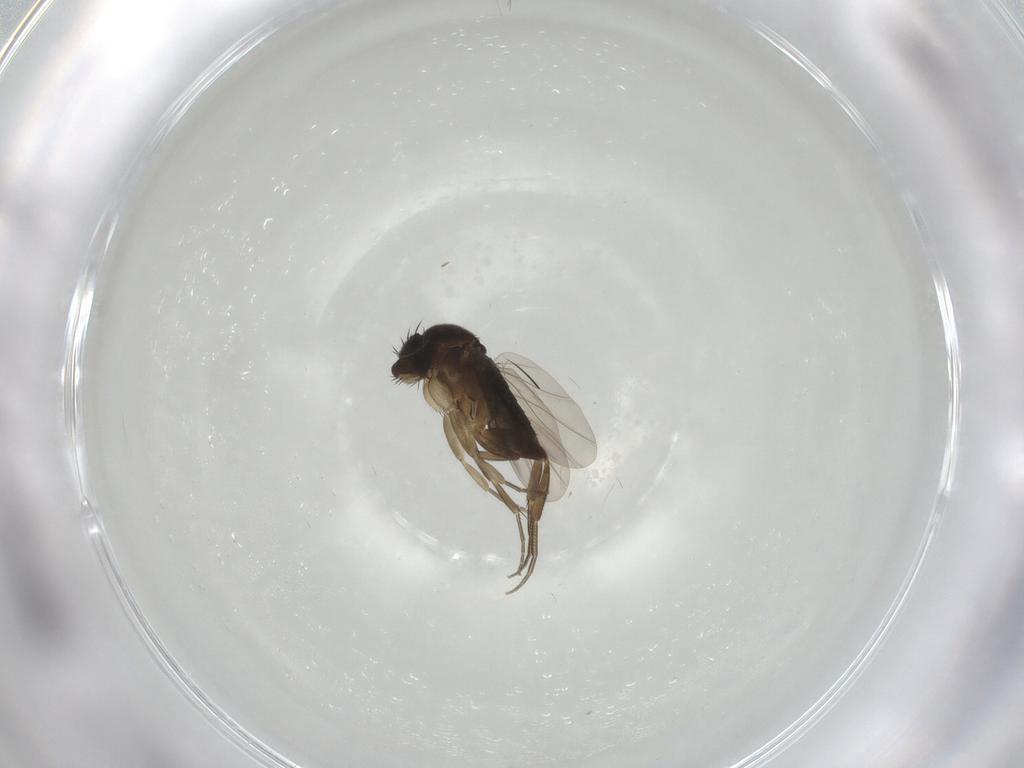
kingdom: Animalia
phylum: Arthropoda
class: Insecta
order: Diptera
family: Phoridae
